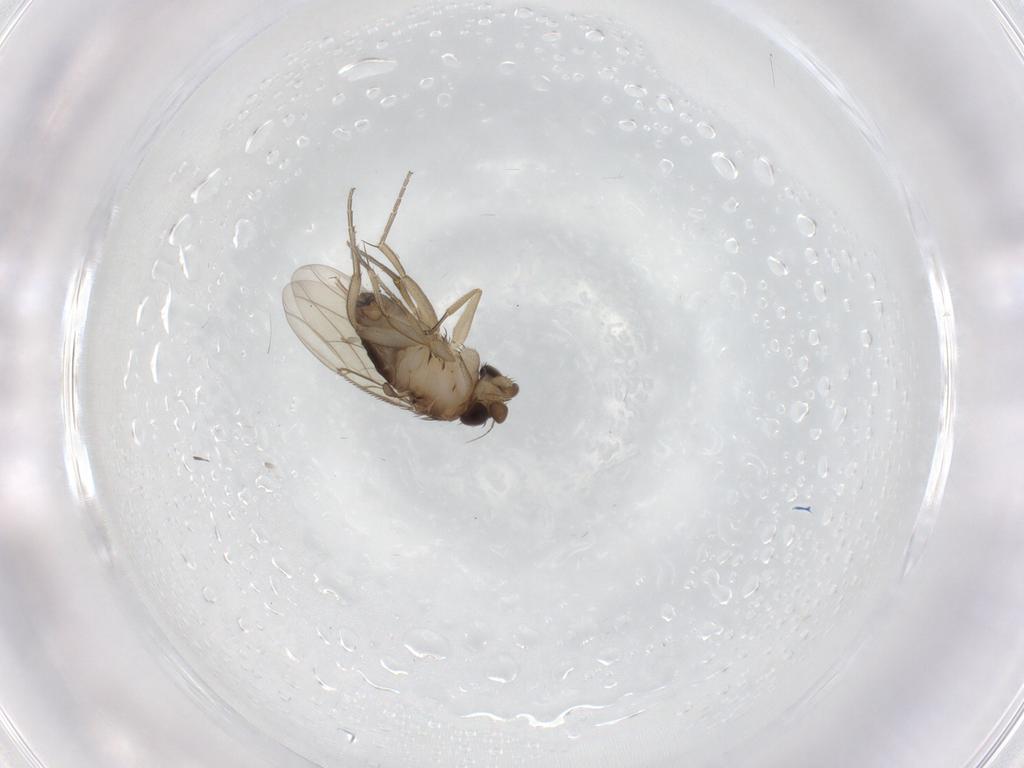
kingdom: Animalia
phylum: Arthropoda
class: Insecta
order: Diptera
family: Phoridae
